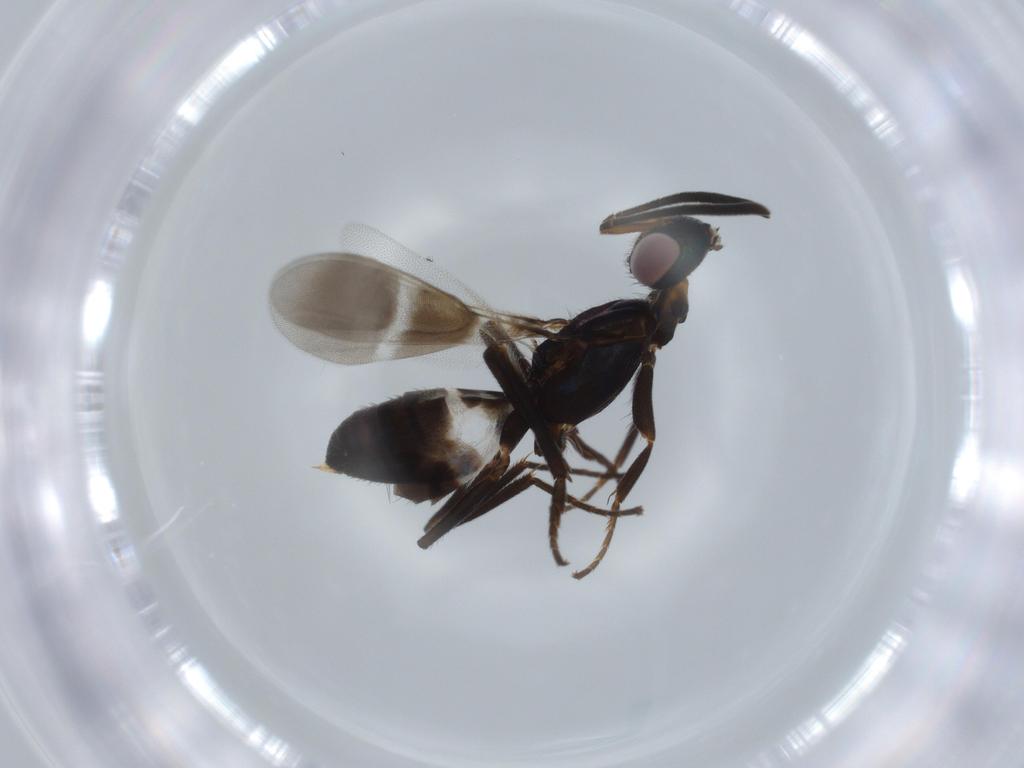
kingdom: Animalia
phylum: Arthropoda
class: Insecta
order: Hymenoptera
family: Eupelmidae
